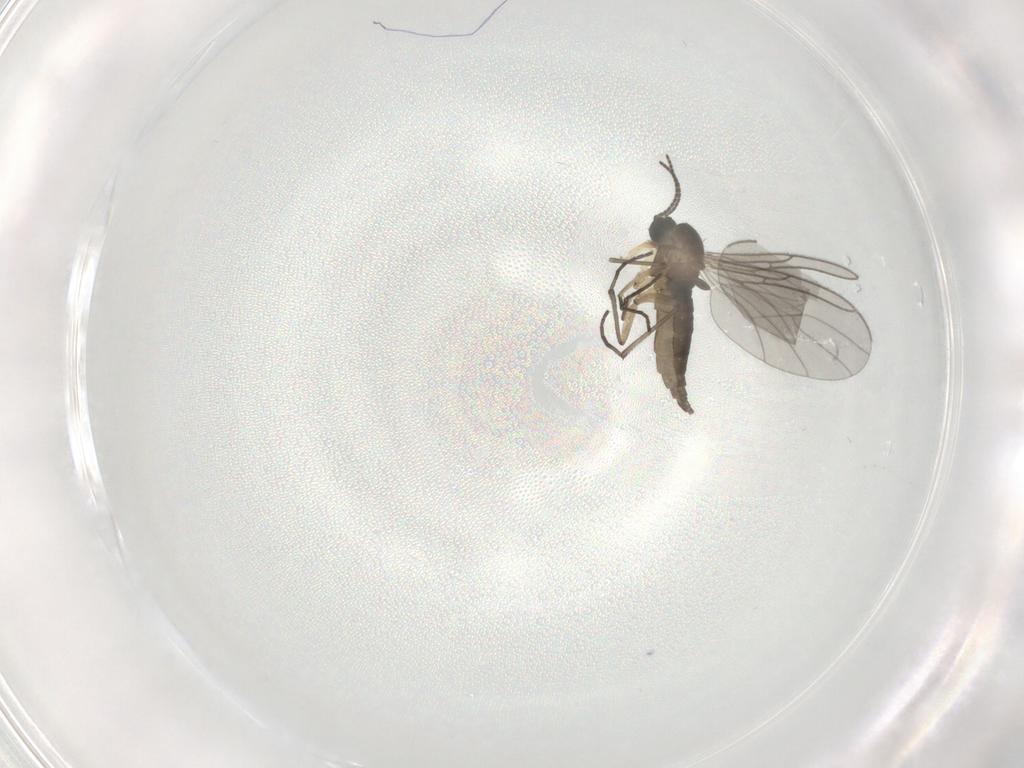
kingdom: Animalia
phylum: Arthropoda
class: Insecta
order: Diptera
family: Sciaridae
